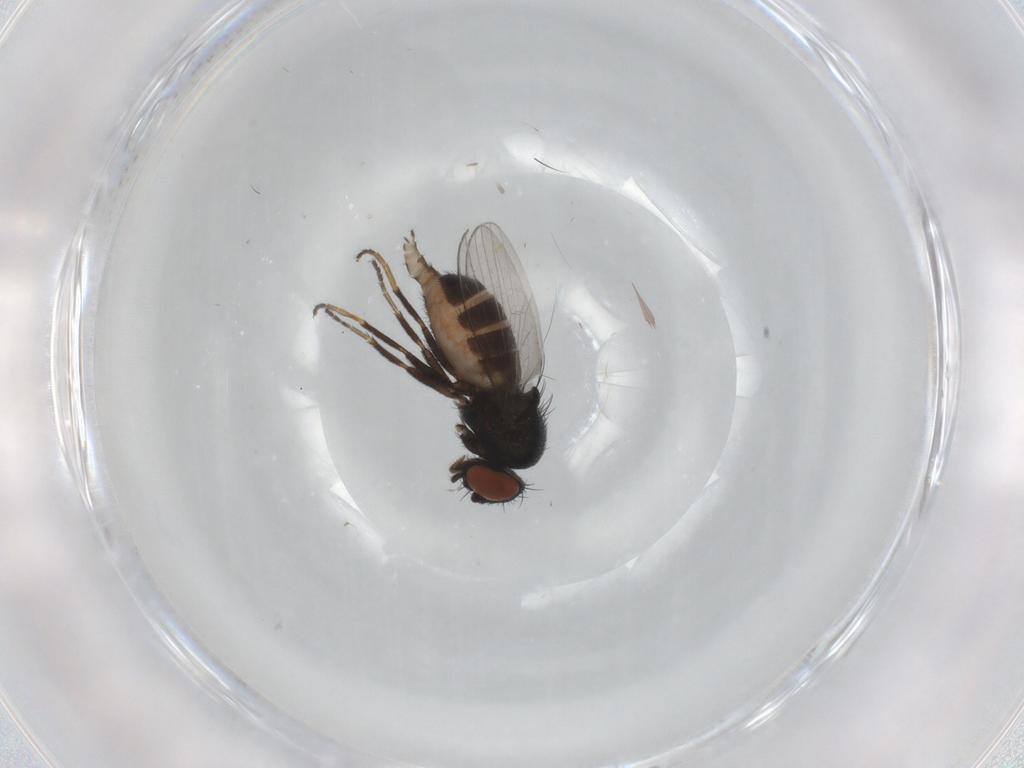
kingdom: Animalia
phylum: Arthropoda
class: Insecta
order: Diptera
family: Milichiidae
